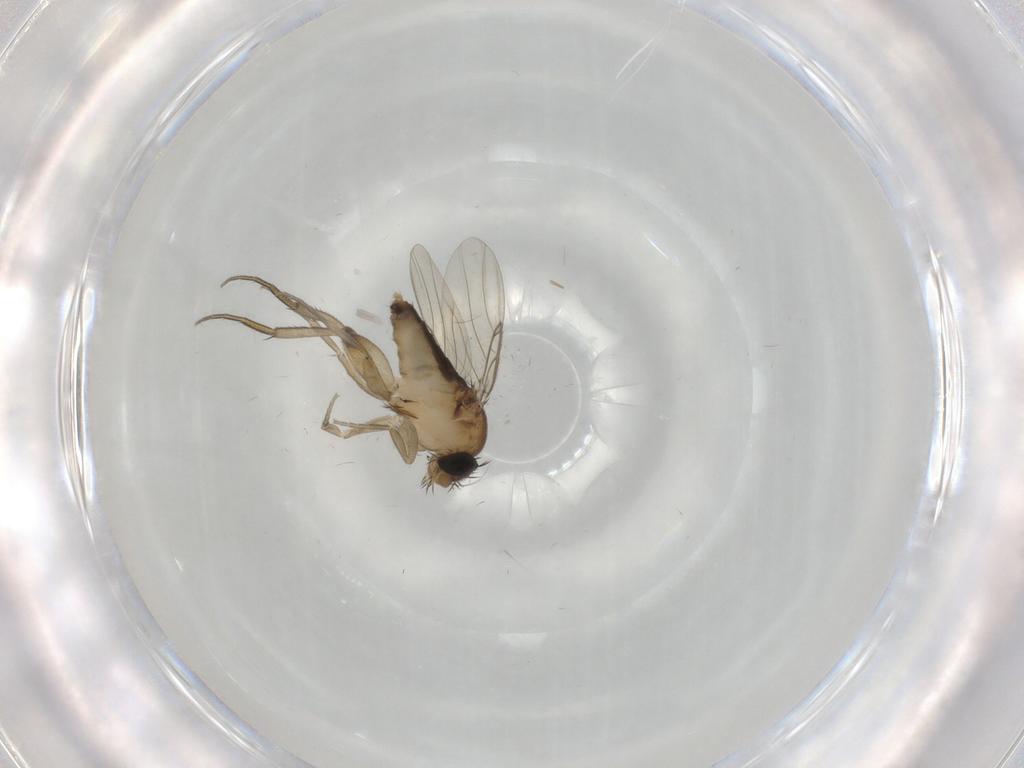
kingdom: Animalia
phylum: Arthropoda
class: Insecta
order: Diptera
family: Phoridae
